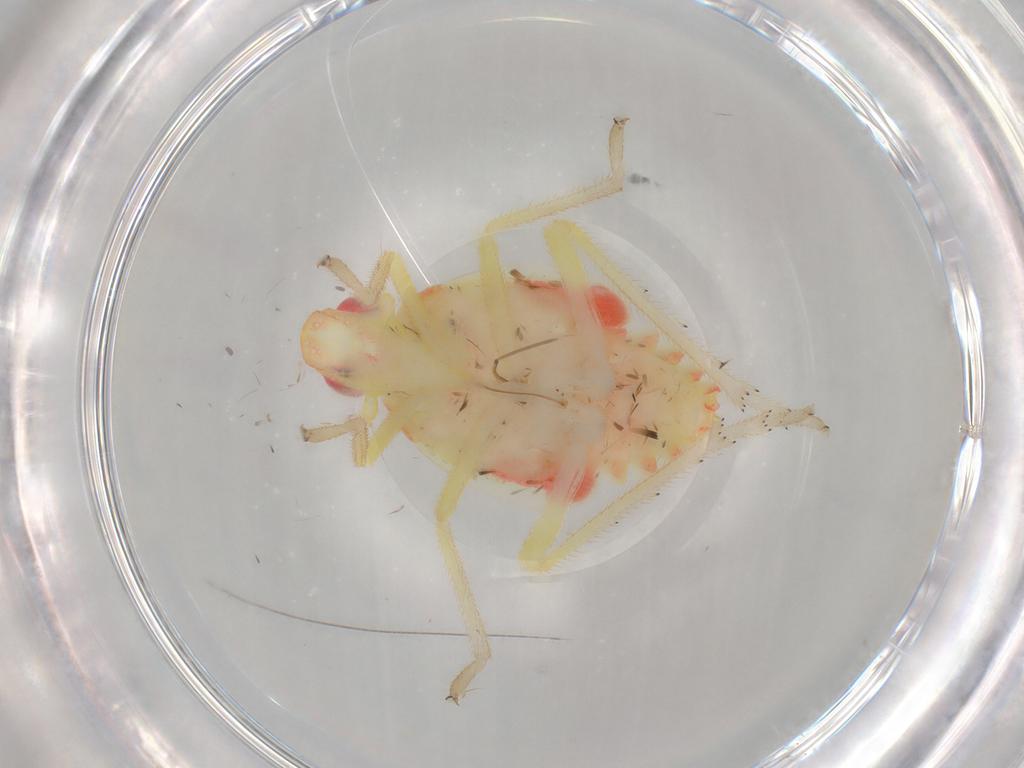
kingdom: Animalia
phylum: Arthropoda
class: Insecta
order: Hemiptera
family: Tropiduchidae
